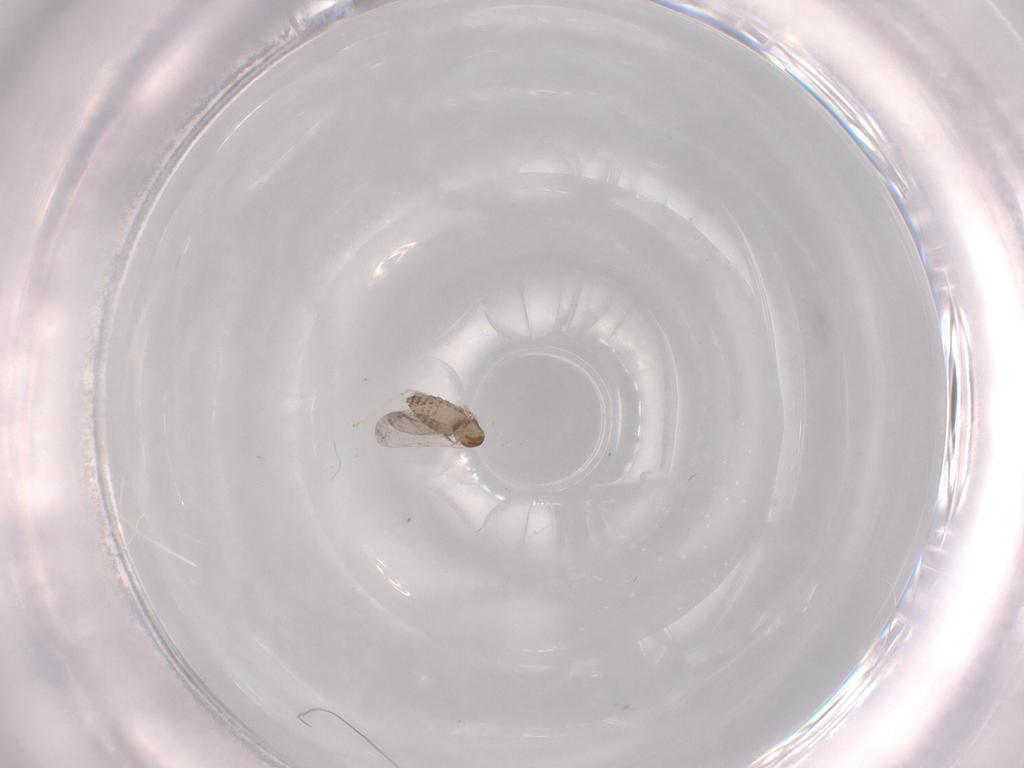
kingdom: Animalia
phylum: Arthropoda
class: Insecta
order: Diptera
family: Cecidomyiidae
